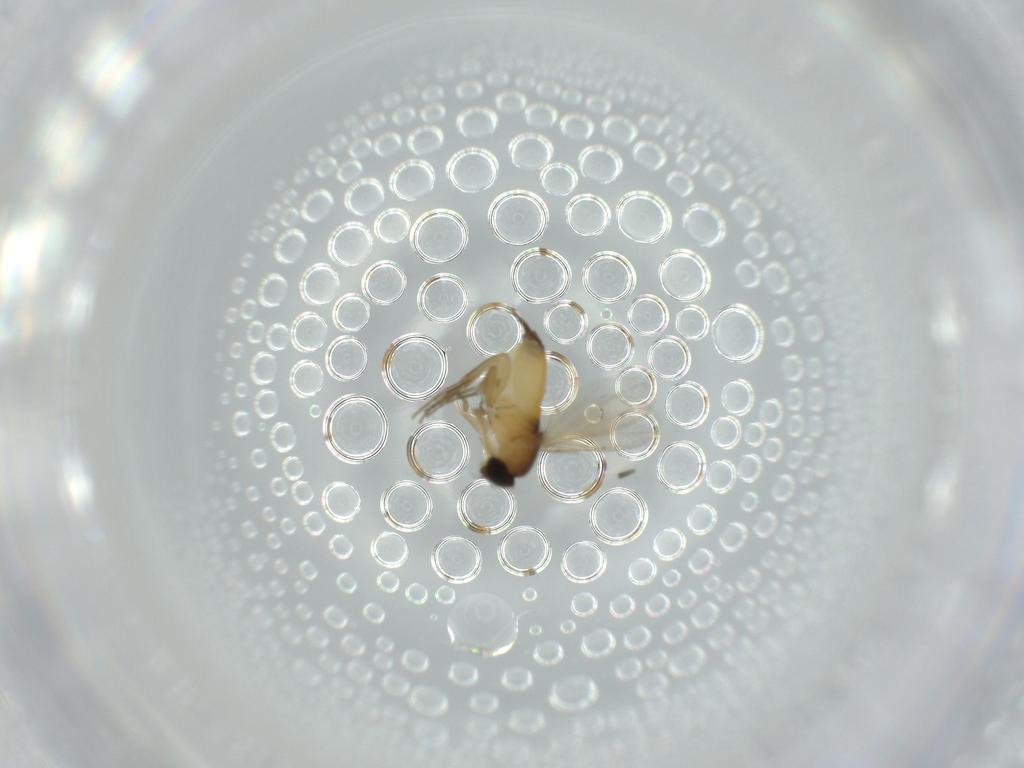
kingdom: Animalia
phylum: Arthropoda
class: Insecta
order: Diptera
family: Phoridae
